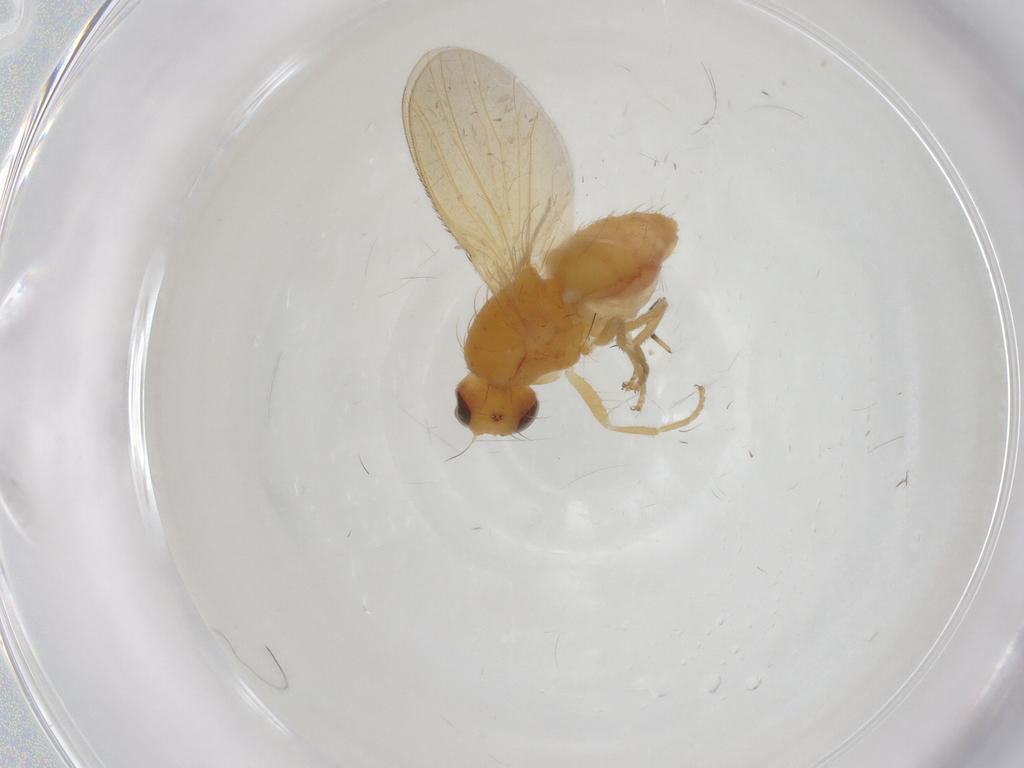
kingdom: Animalia
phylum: Arthropoda
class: Insecta
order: Diptera
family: Heleomyzidae
